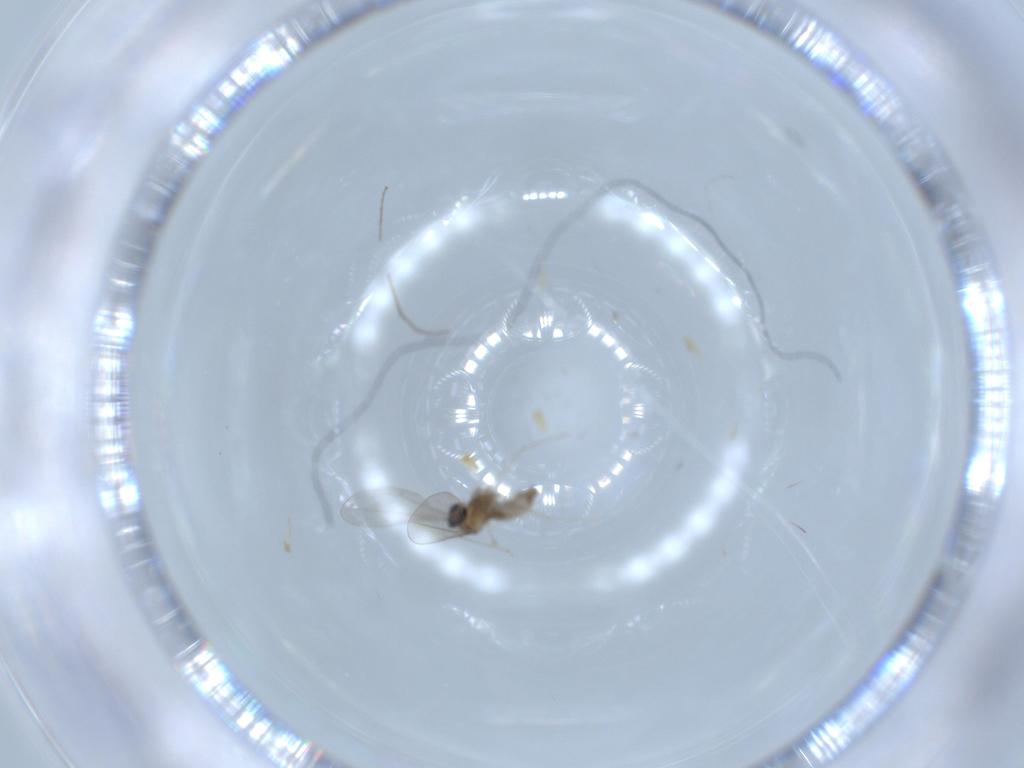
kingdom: Animalia
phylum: Arthropoda
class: Insecta
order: Diptera
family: Cecidomyiidae
